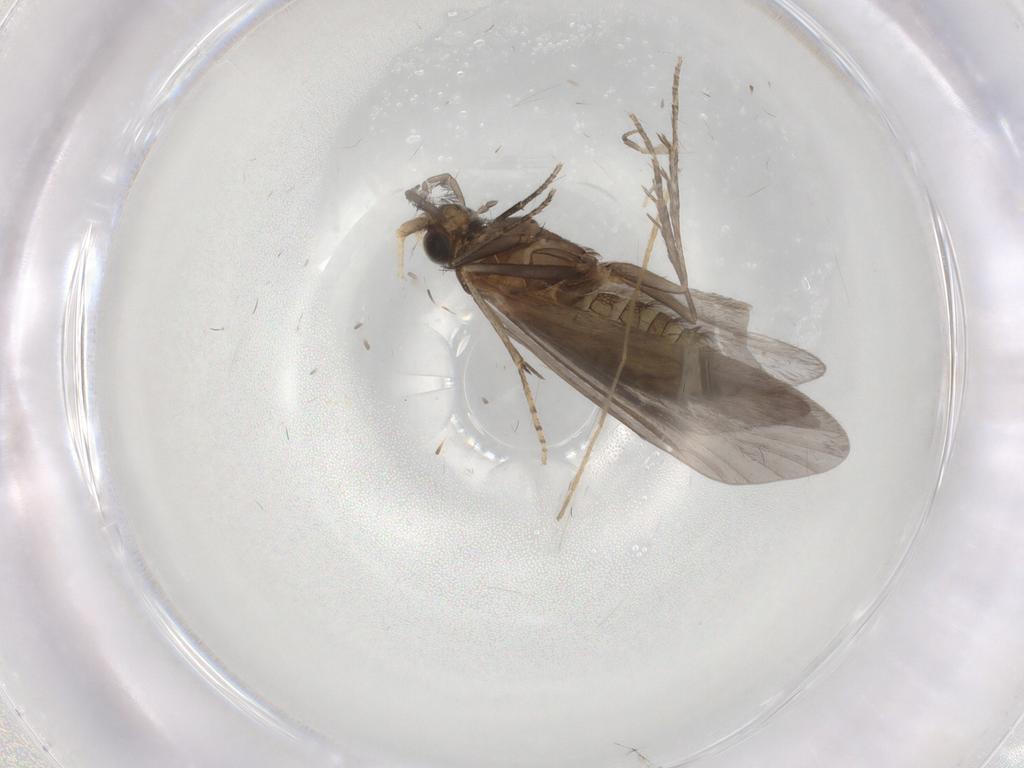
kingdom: Animalia
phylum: Arthropoda
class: Insecta
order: Trichoptera
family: Helicopsychidae
